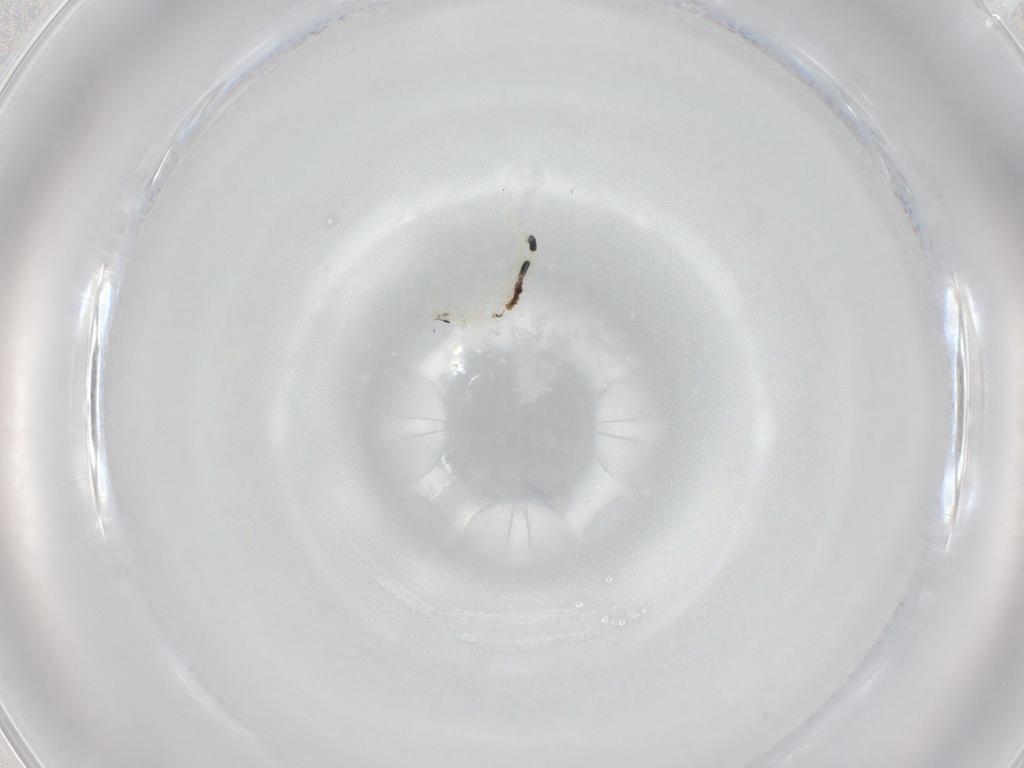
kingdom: Animalia
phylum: Arthropoda
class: Collembola
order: Entomobryomorpha
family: Entomobryidae
